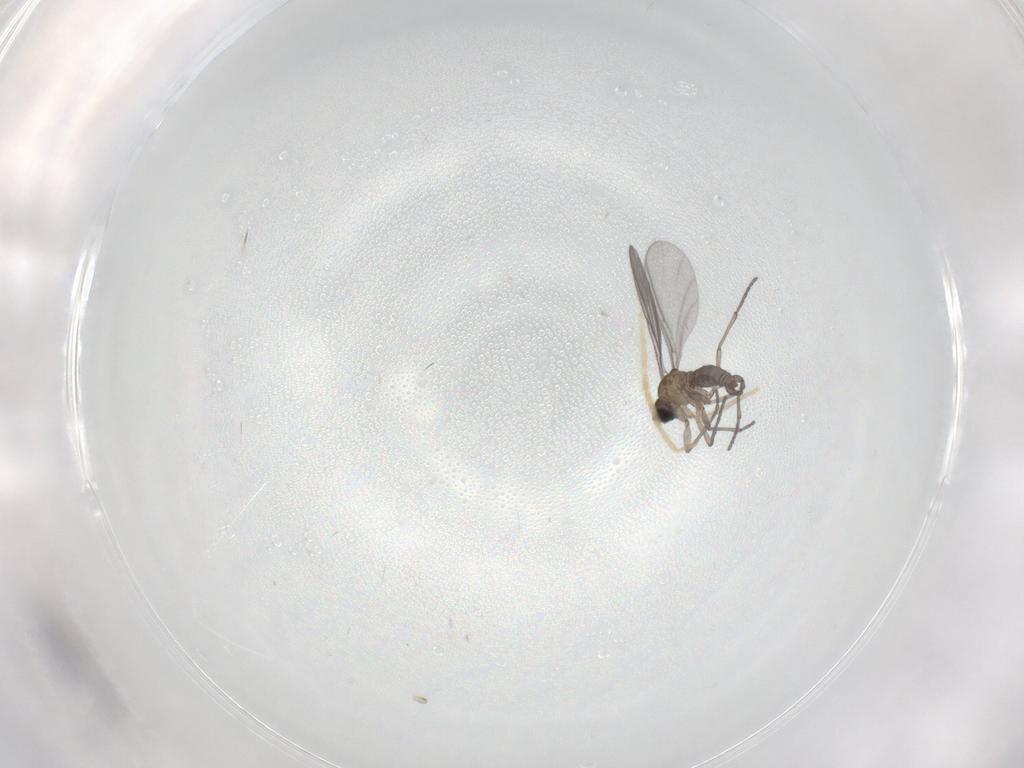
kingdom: Animalia
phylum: Arthropoda
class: Insecta
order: Diptera
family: Sciaridae
